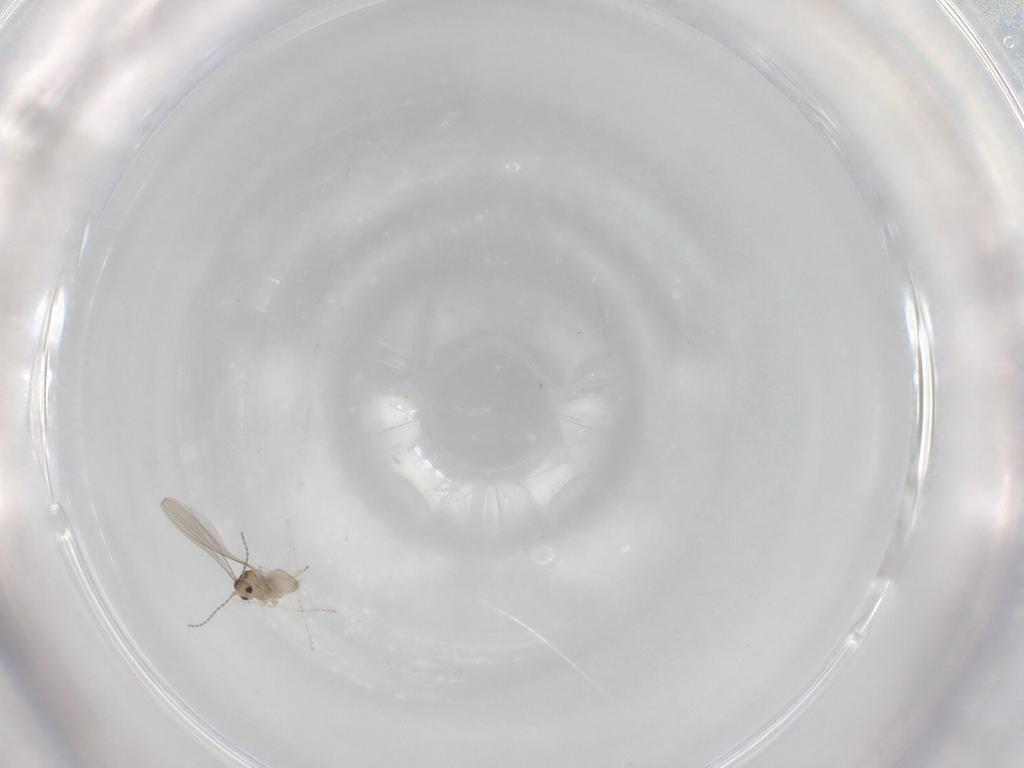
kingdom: Animalia
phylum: Arthropoda
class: Insecta
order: Diptera
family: Cecidomyiidae
